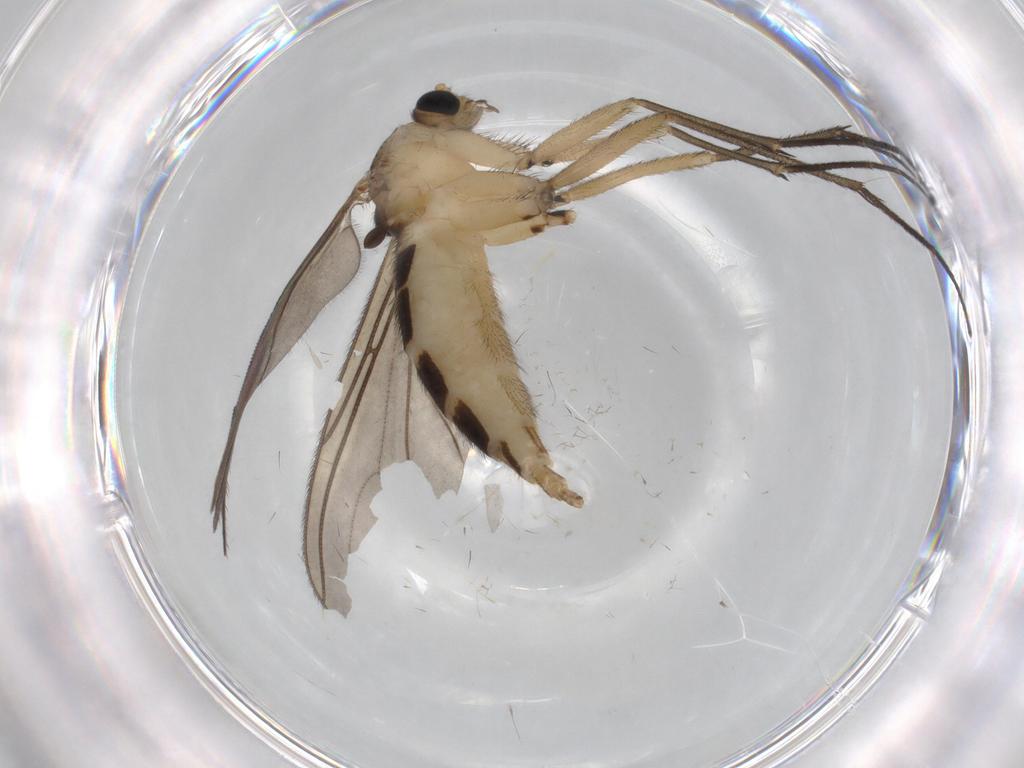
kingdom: Animalia
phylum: Arthropoda
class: Insecta
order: Diptera
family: Sciaridae
